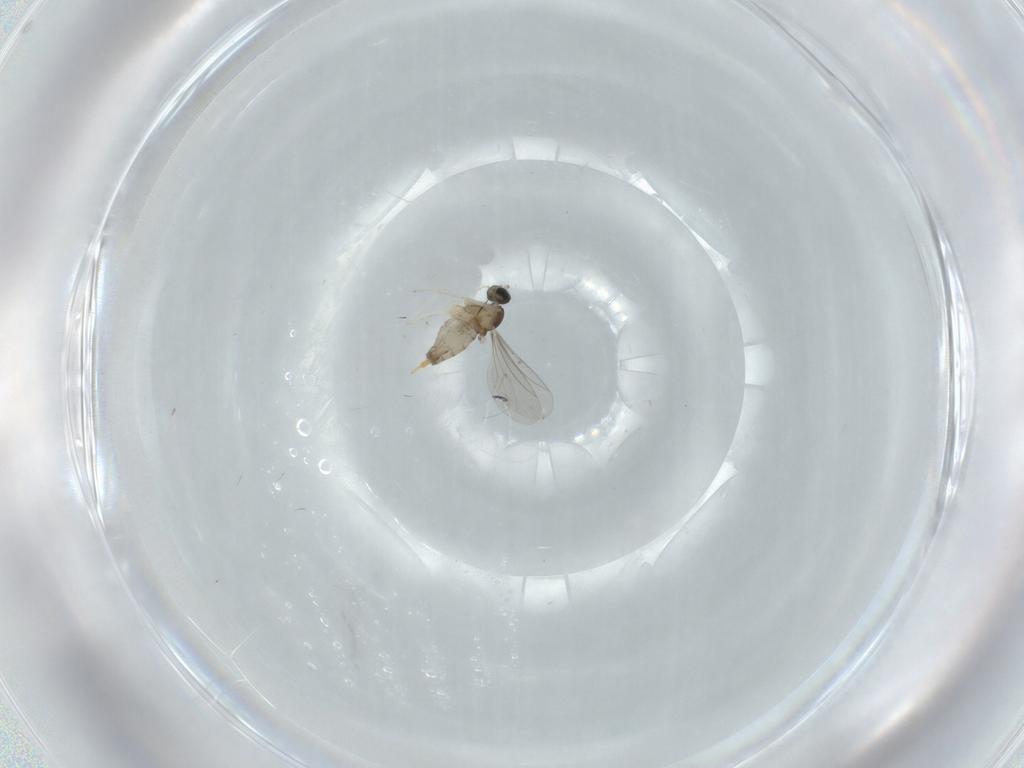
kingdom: Animalia
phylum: Arthropoda
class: Insecta
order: Diptera
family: Cecidomyiidae
